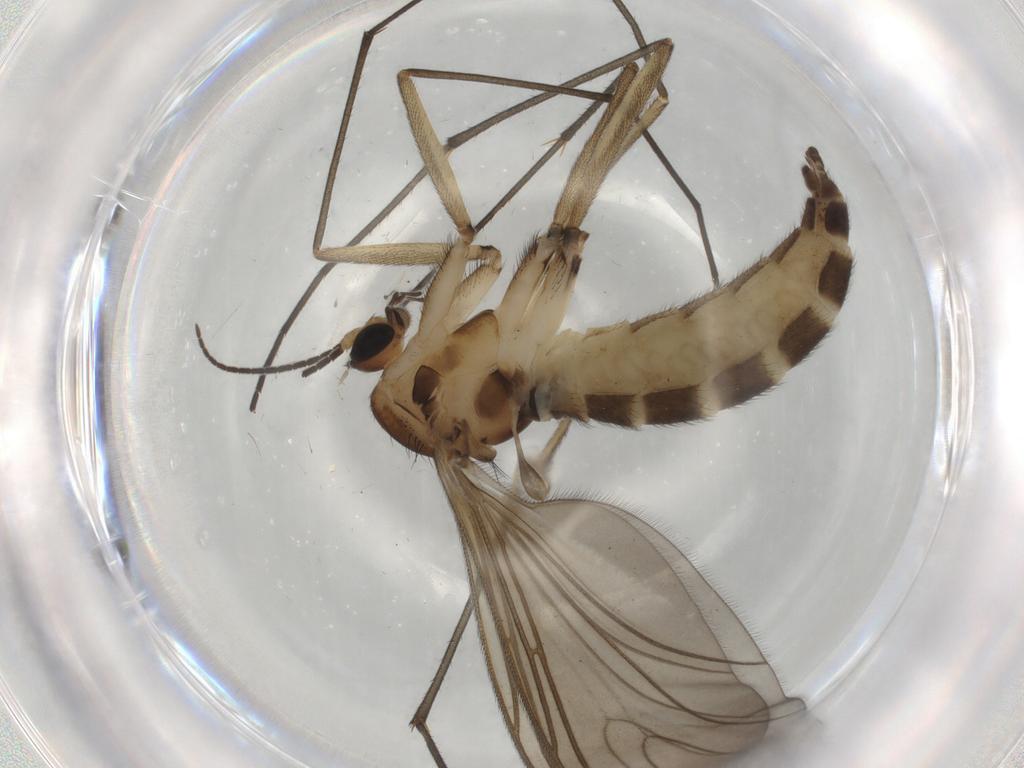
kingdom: Animalia
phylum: Arthropoda
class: Insecta
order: Diptera
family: Sciaridae
